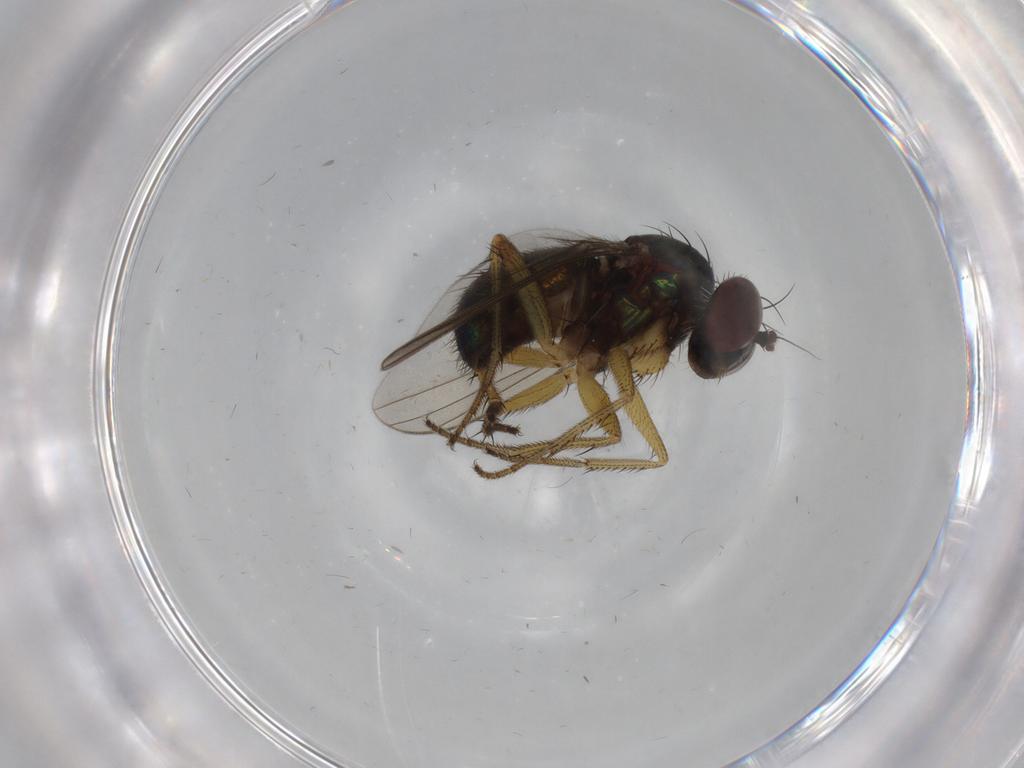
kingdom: Animalia
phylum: Arthropoda
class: Insecta
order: Diptera
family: Dolichopodidae
